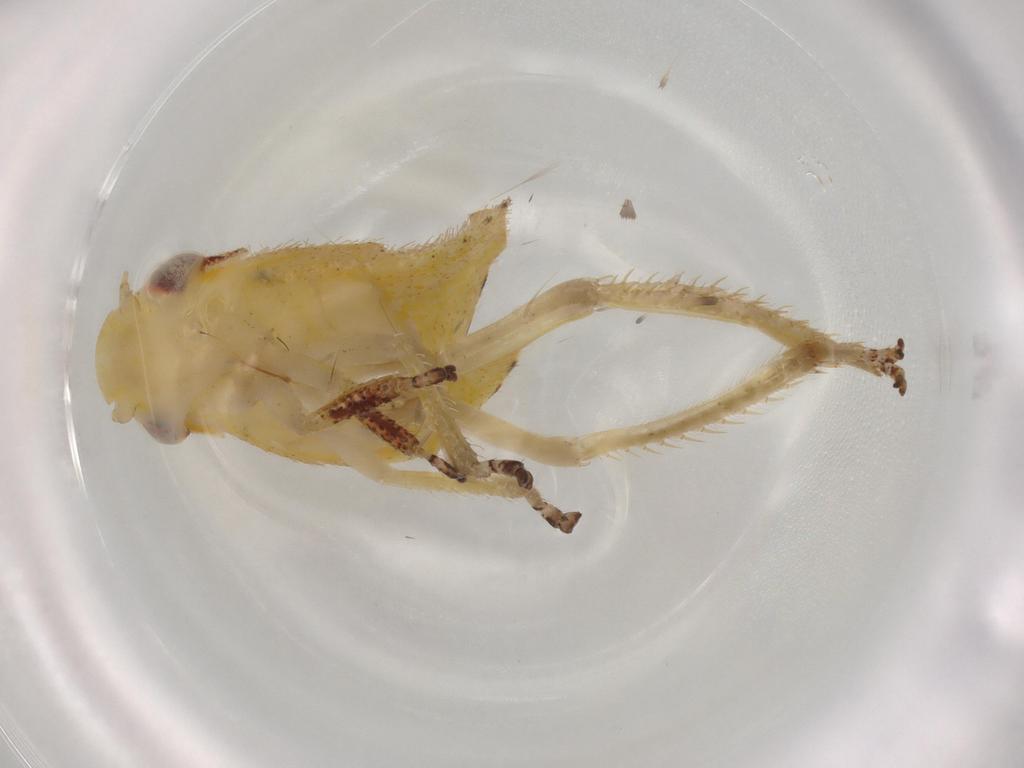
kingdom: Animalia
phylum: Arthropoda
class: Insecta
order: Hemiptera
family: Cicadellidae
